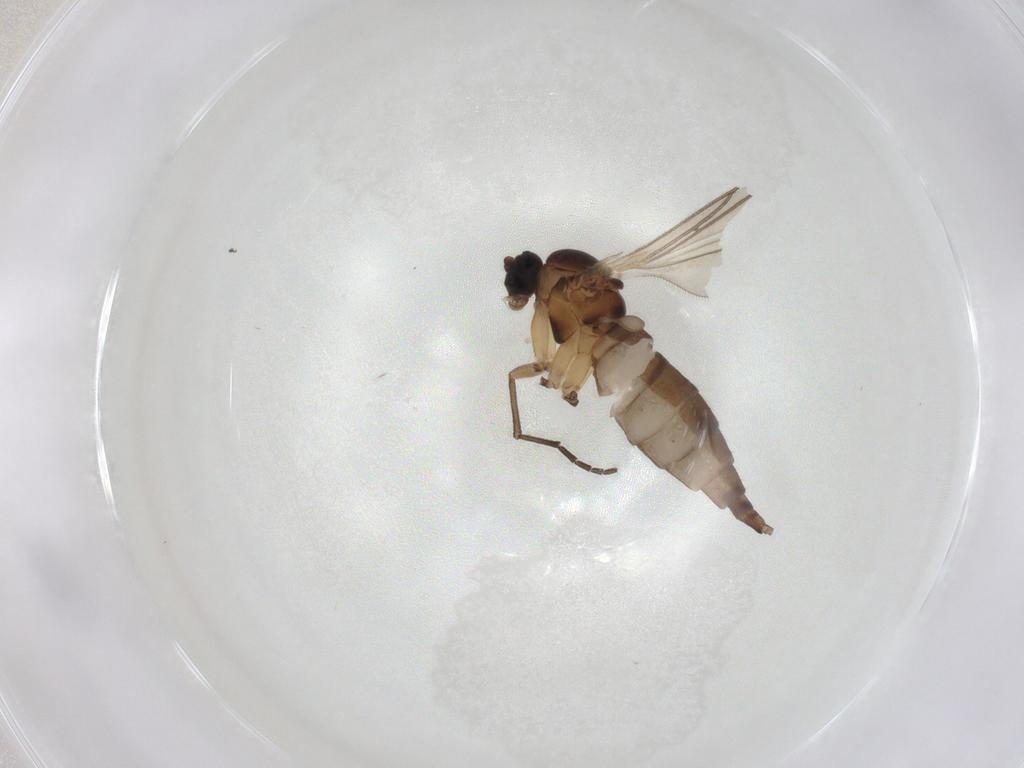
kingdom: Animalia
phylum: Arthropoda
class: Insecta
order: Diptera
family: Sciaridae
